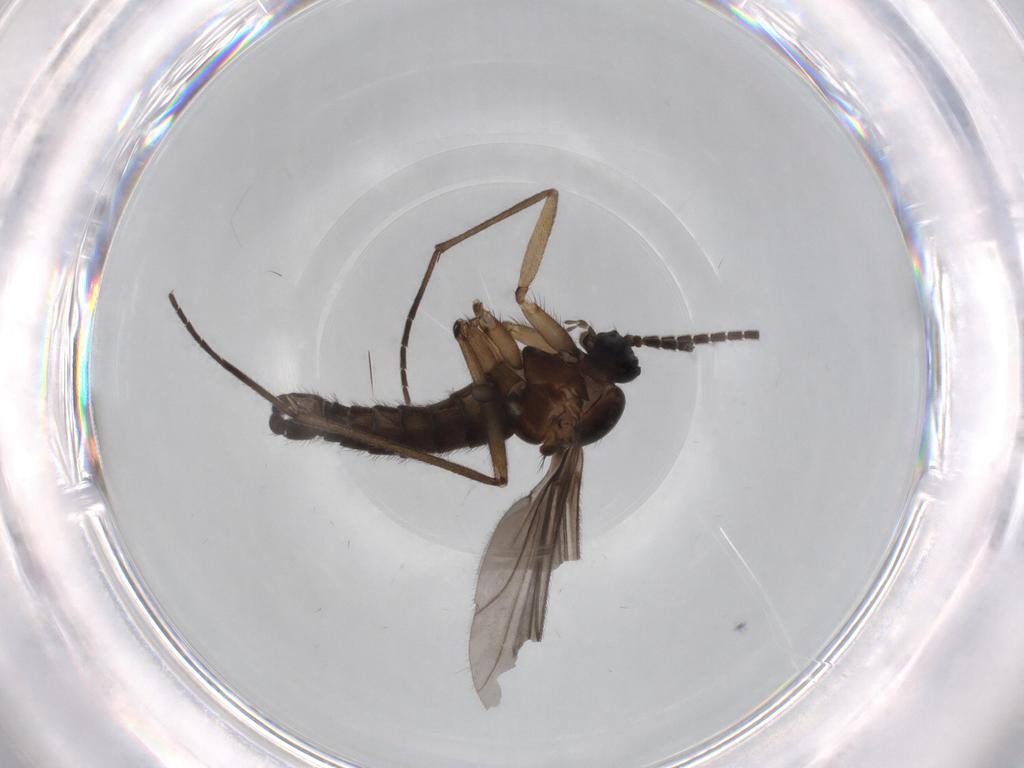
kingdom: Animalia
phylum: Arthropoda
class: Insecta
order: Diptera
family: Sciaridae
